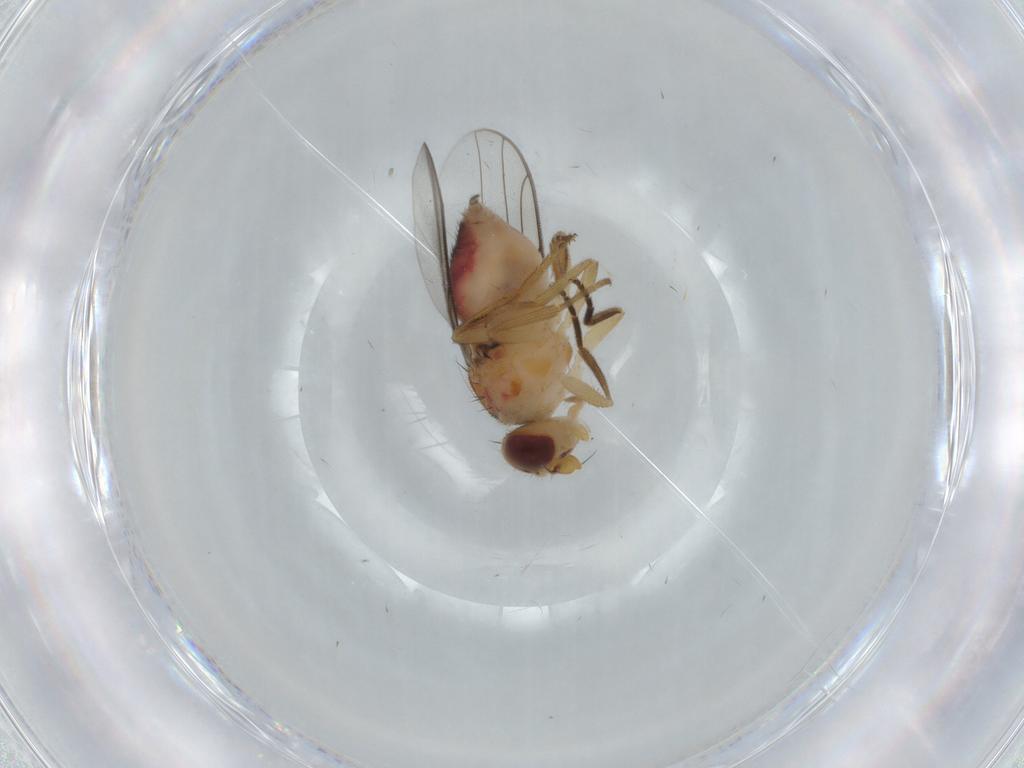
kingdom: Animalia
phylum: Arthropoda
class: Insecta
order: Diptera
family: Chloropidae
